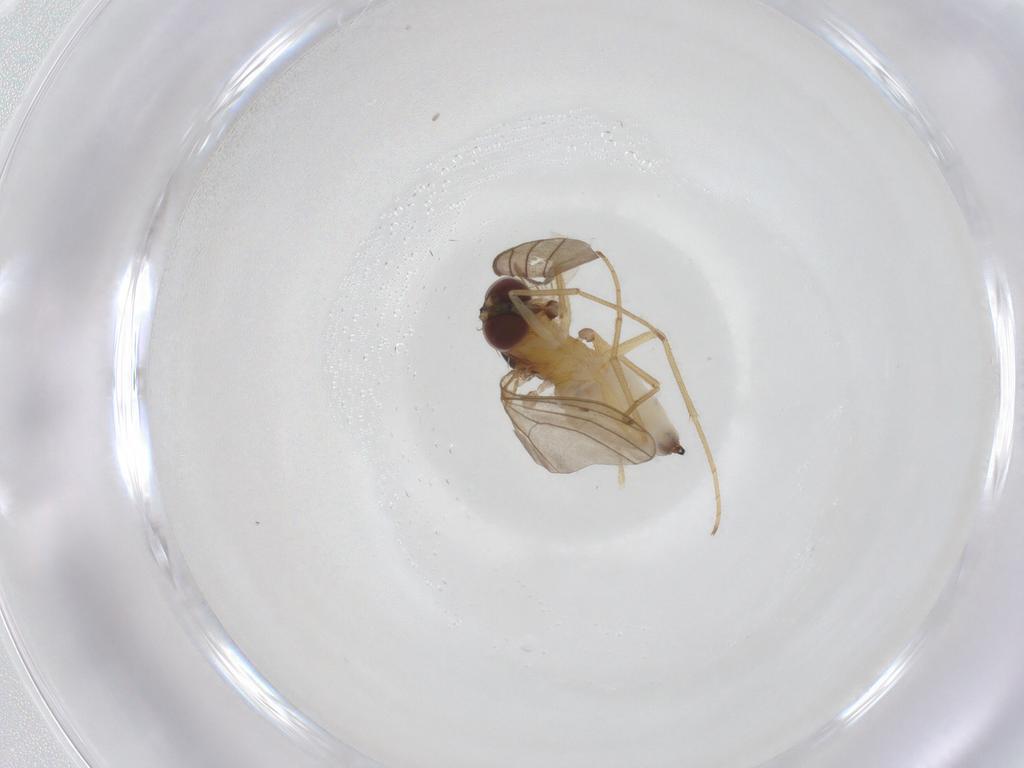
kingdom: Animalia
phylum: Arthropoda
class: Insecta
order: Diptera
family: Dolichopodidae
